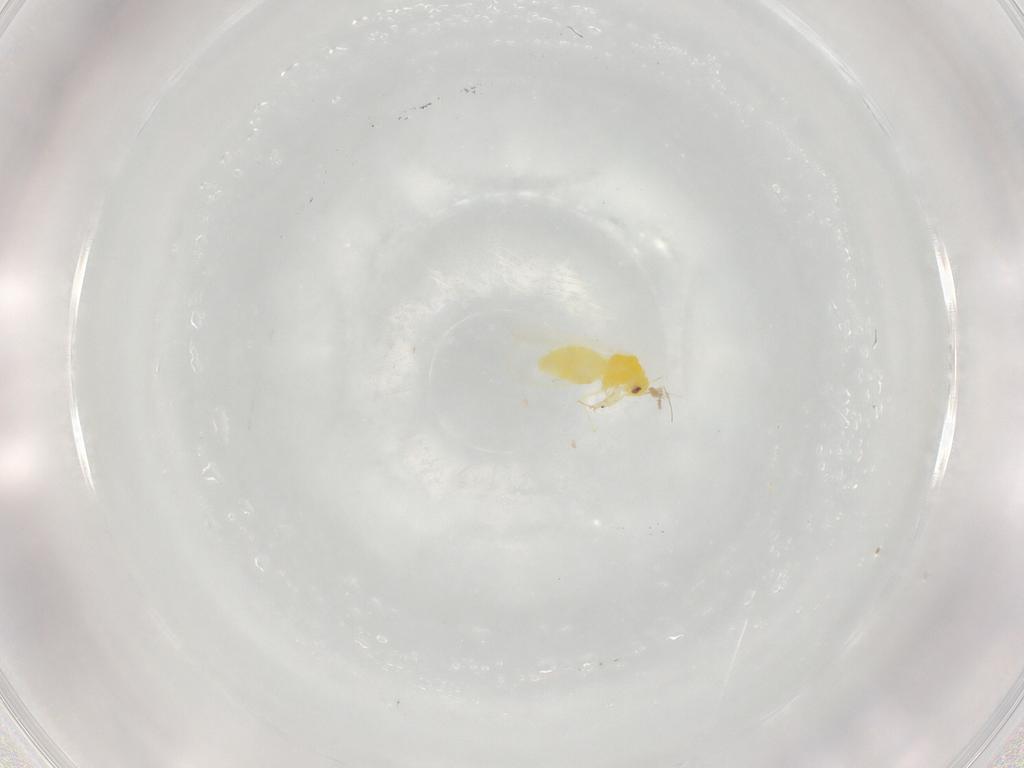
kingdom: Animalia
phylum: Arthropoda
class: Insecta
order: Hemiptera
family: Aleyrodidae
